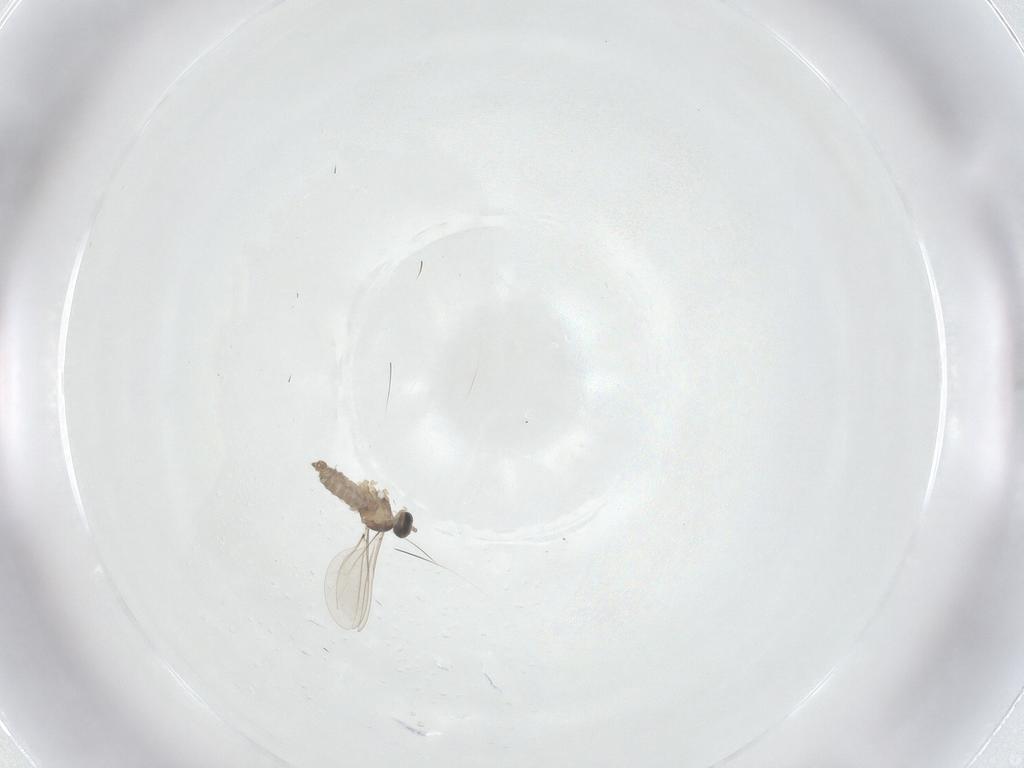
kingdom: Animalia
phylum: Arthropoda
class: Insecta
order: Diptera
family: Cecidomyiidae
